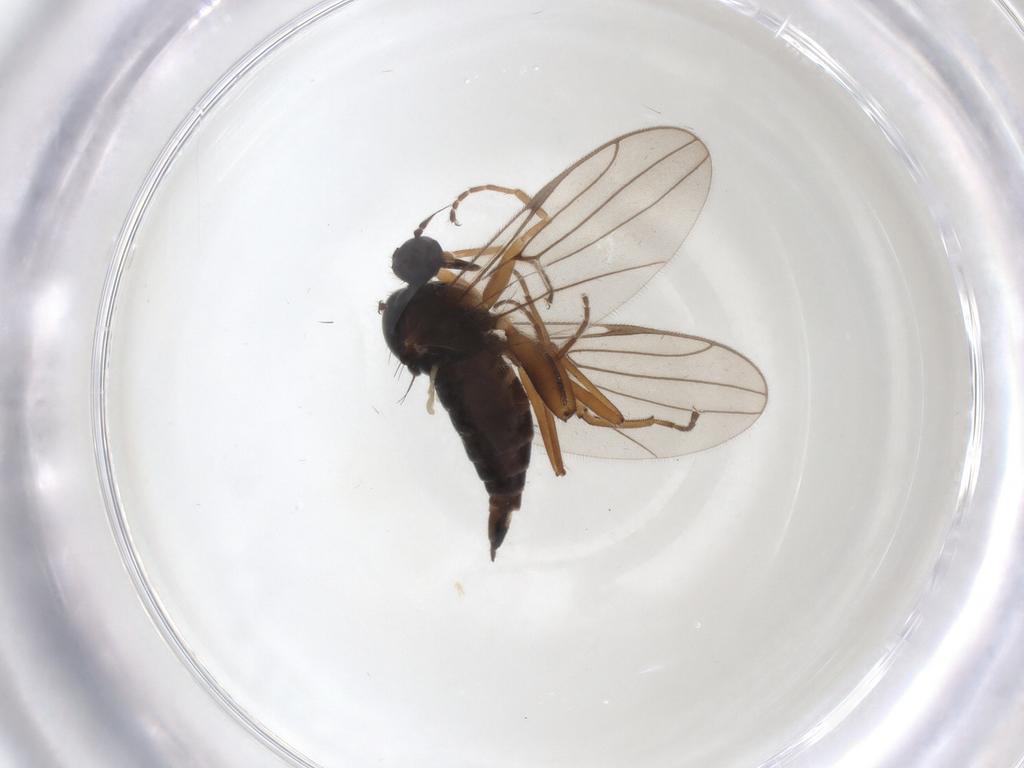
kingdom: Animalia
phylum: Arthropoda
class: Insecta
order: Diptera
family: Hybotidae
